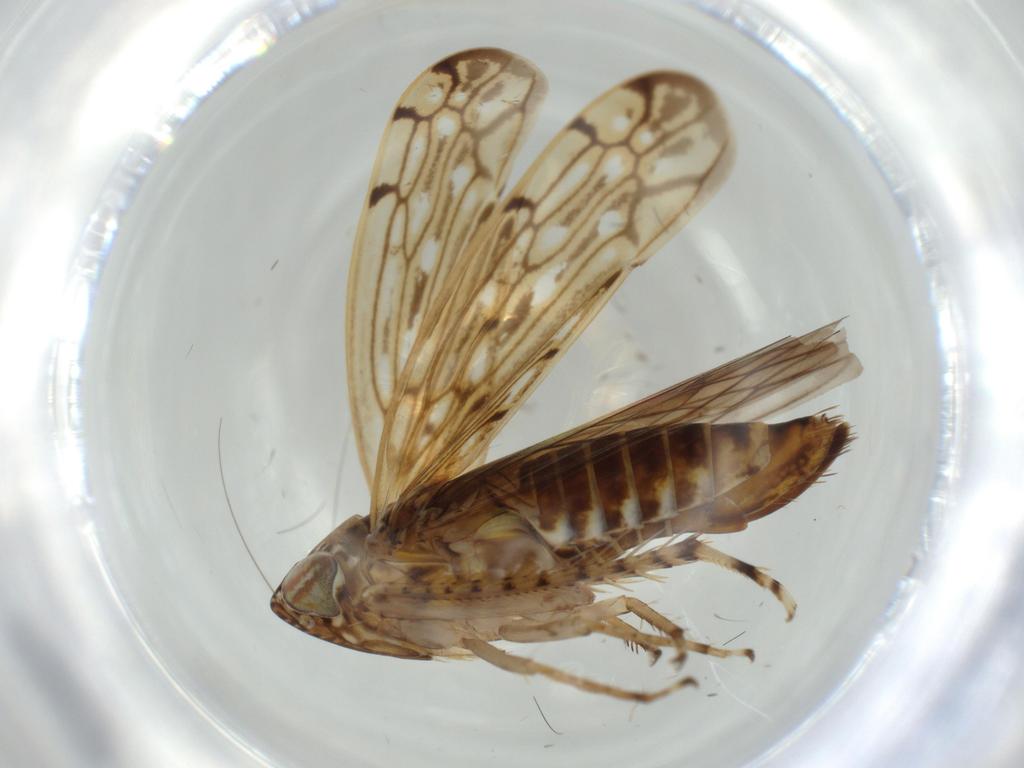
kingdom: Animalia
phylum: Arthropoda
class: Insecta
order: Hemiptera
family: Cicadellidae
